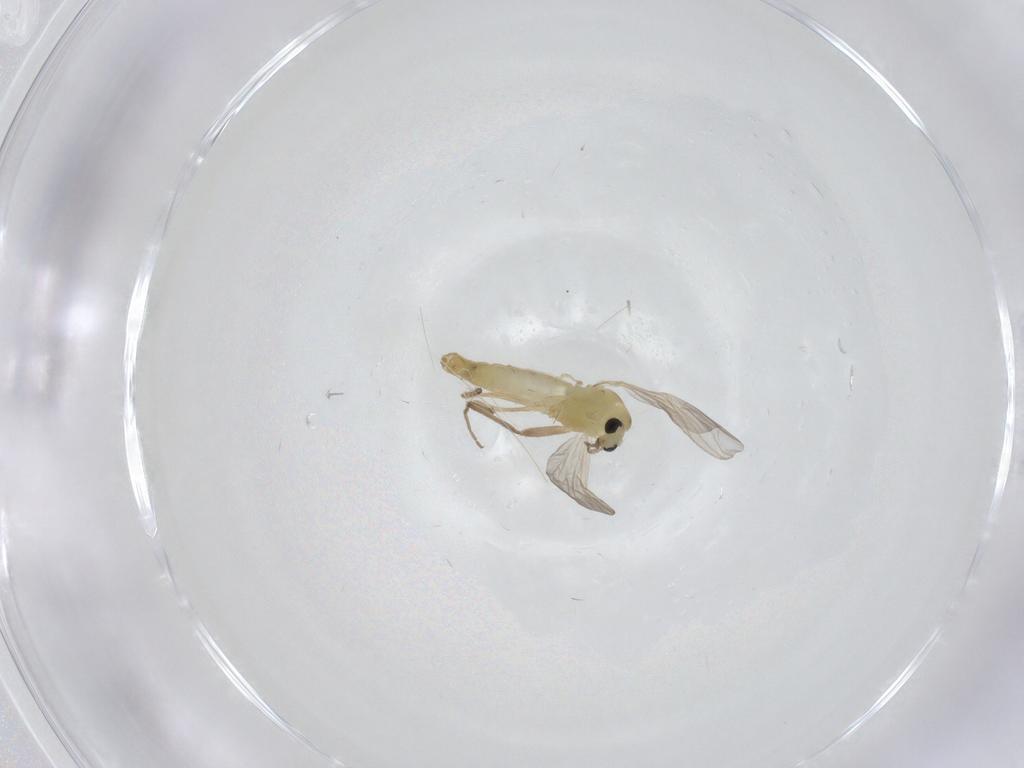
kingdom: Animalia
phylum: Arthropoda
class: Insecta
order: Diptera
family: Chironomidae
